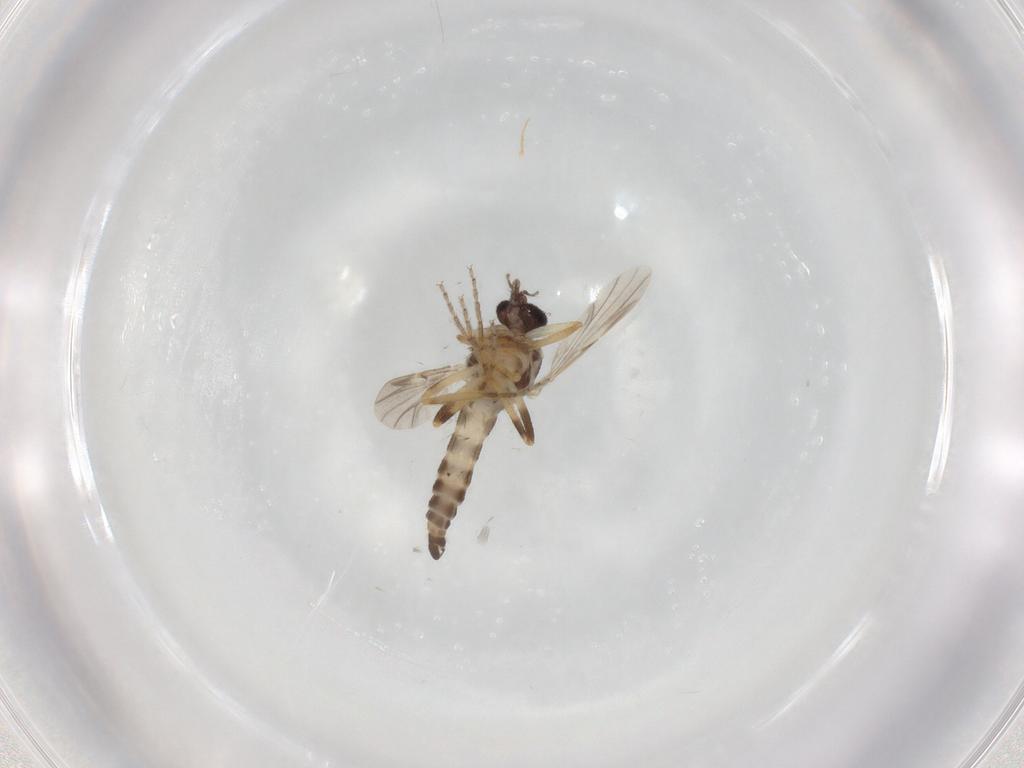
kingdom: Animalia
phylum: Arthropoda
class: Insecta
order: Diptera
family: Ceratopogonidae
